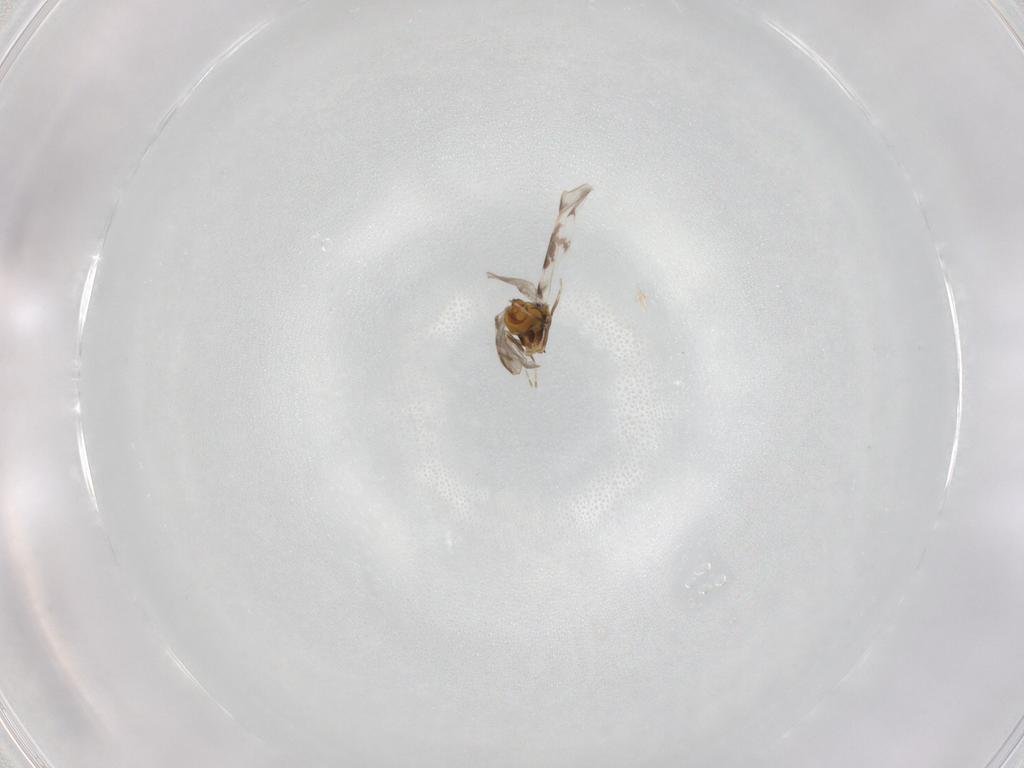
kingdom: Animalia
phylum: Arthropoda
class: Insecta
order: Hemiptera
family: Aleyrodidae
